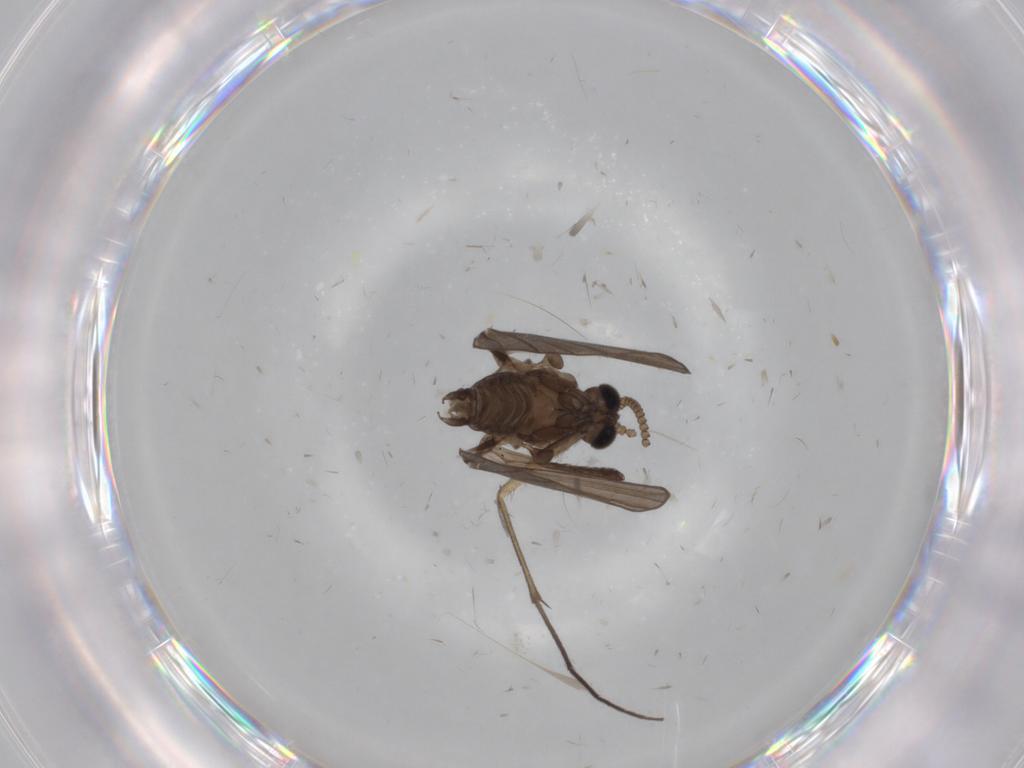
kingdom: Animalia
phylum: Arthropoda
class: Insecta
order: Diptera
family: Psychodidae
